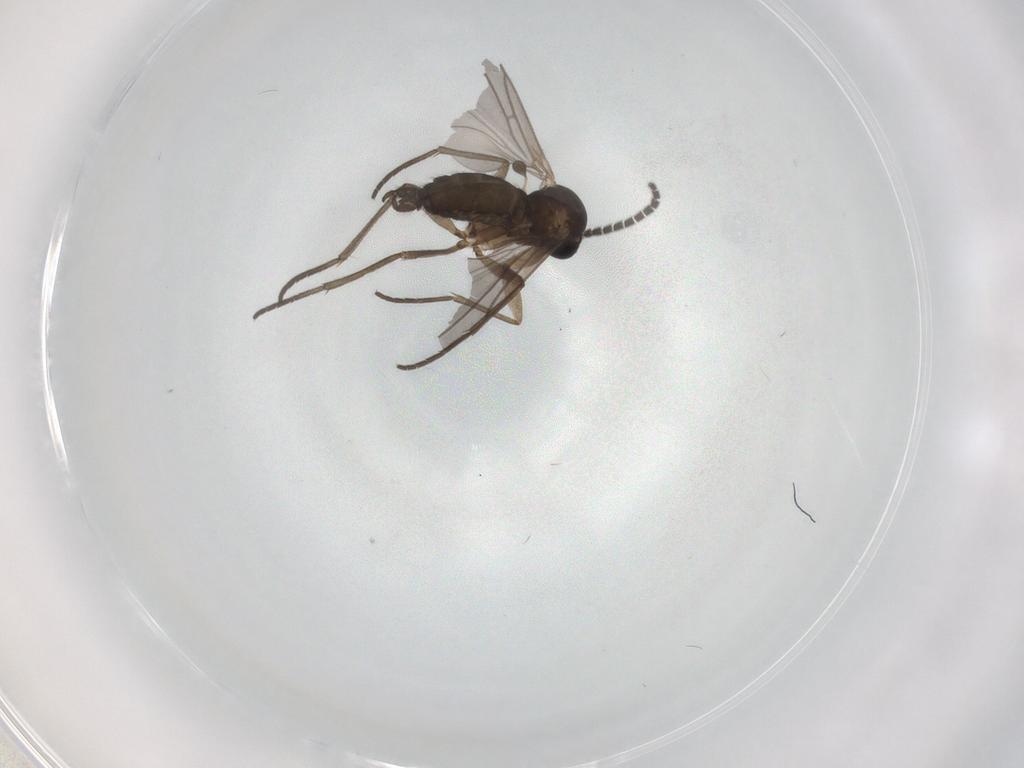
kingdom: Animalia
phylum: Arthropoda
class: Insecta
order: Diptera
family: Sciaridae
